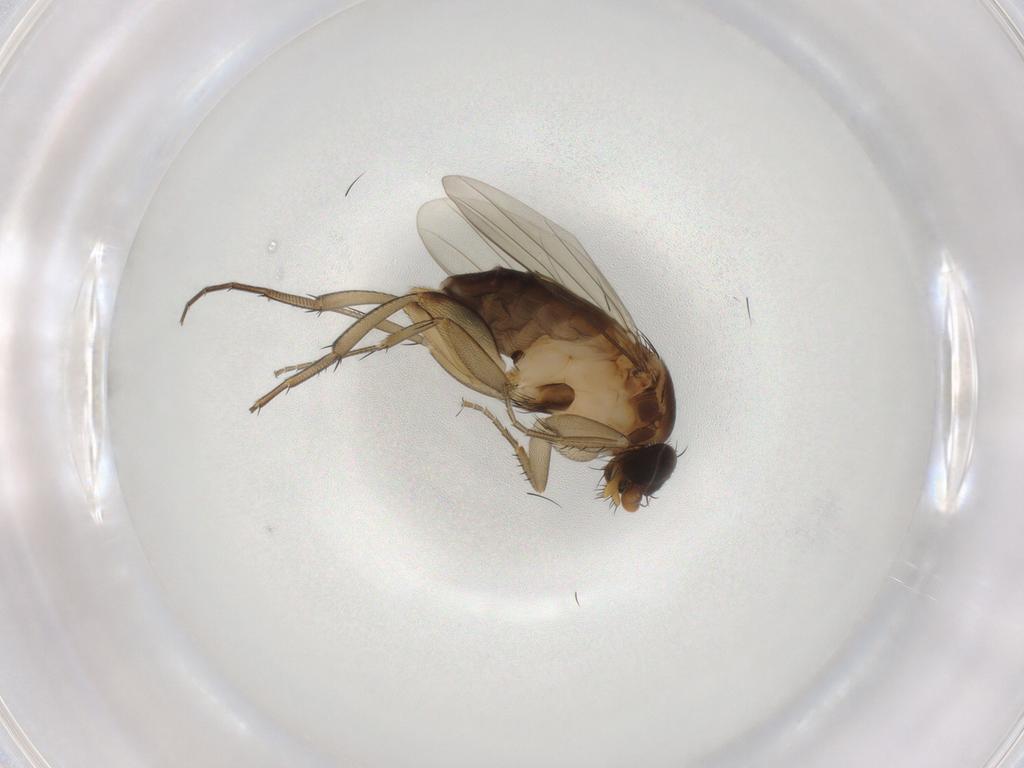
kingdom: Animalia
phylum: Arthropoda
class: Insecta
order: Diptera
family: Phoridae
